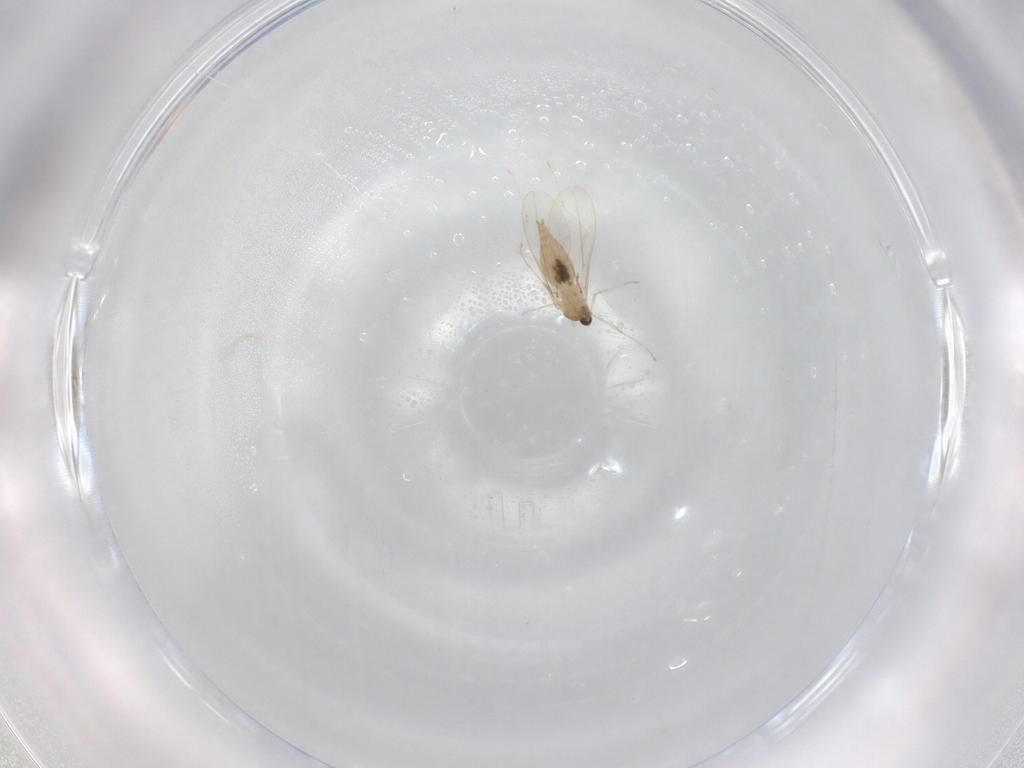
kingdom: Animalia
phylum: Arthropoda
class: Insecta
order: Diptera
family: Cecidomyiidae
